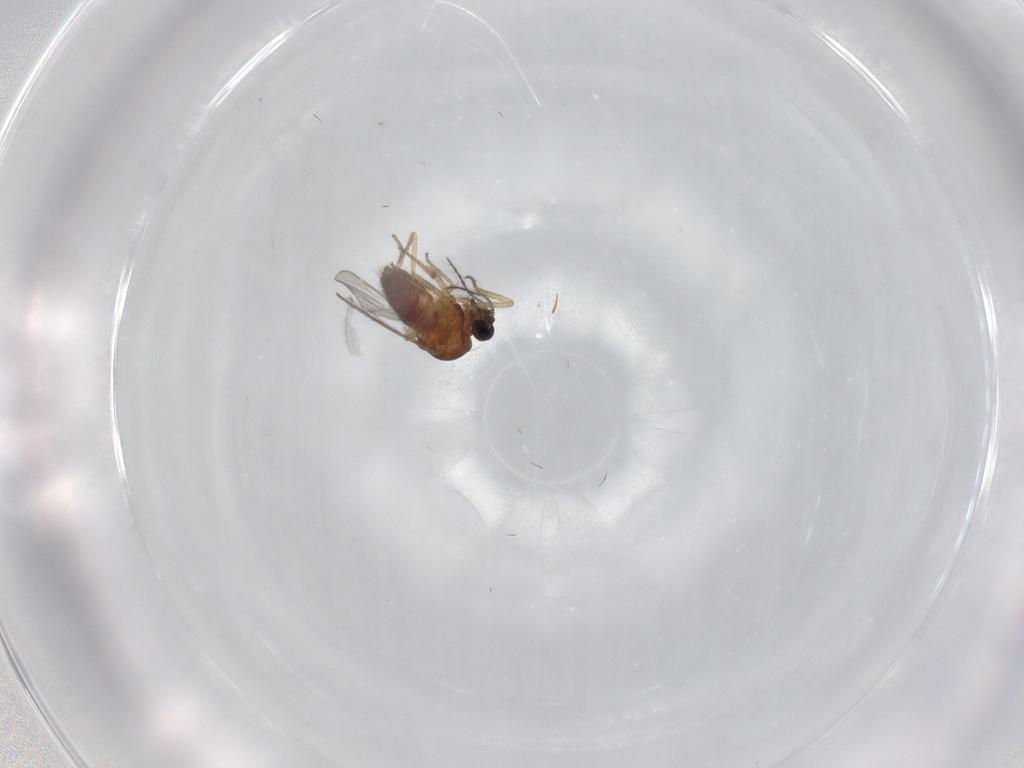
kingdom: Animalia
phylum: Arthropoda
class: Insecta
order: Diptera
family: Ceratopogonidae
